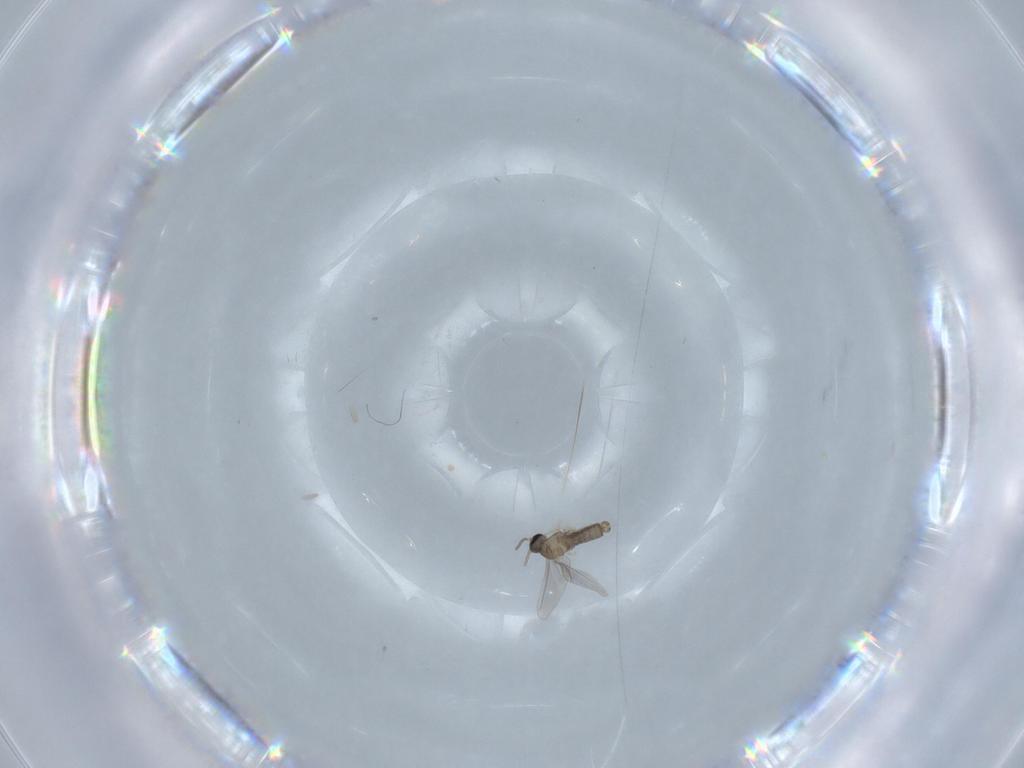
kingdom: Animalia
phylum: Arthropoda
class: Insecta
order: Diptera
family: Cecidomyiidae
